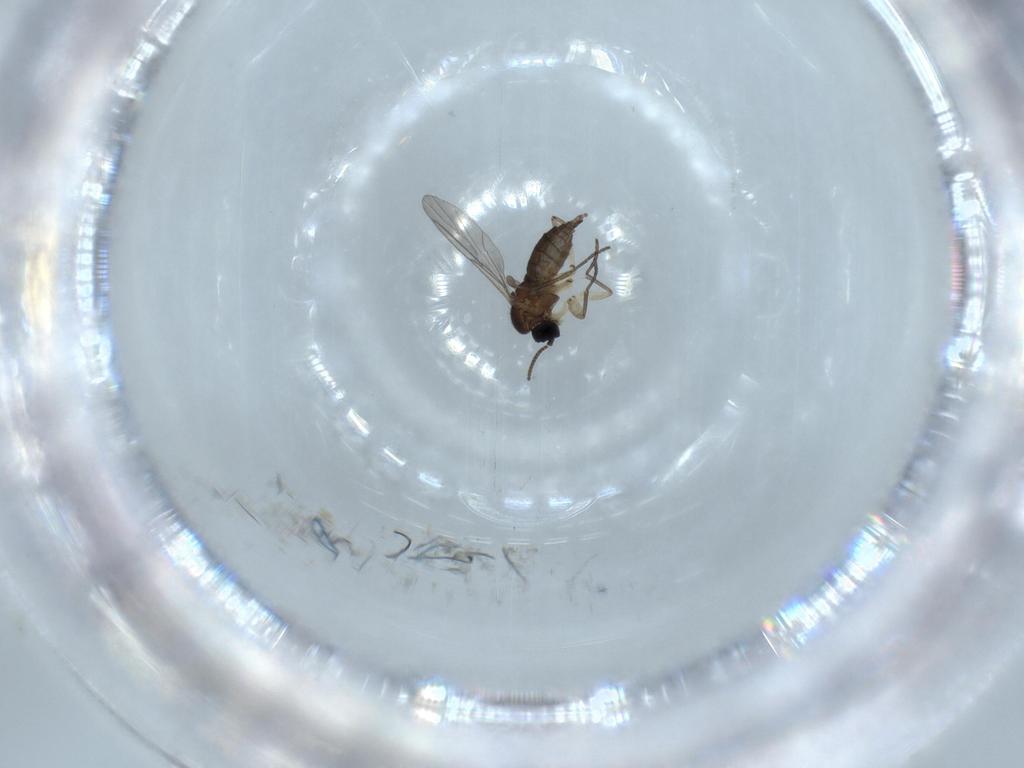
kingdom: Animalia
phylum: Arthropoda
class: Insecta
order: Diptera
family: Sciaridae
